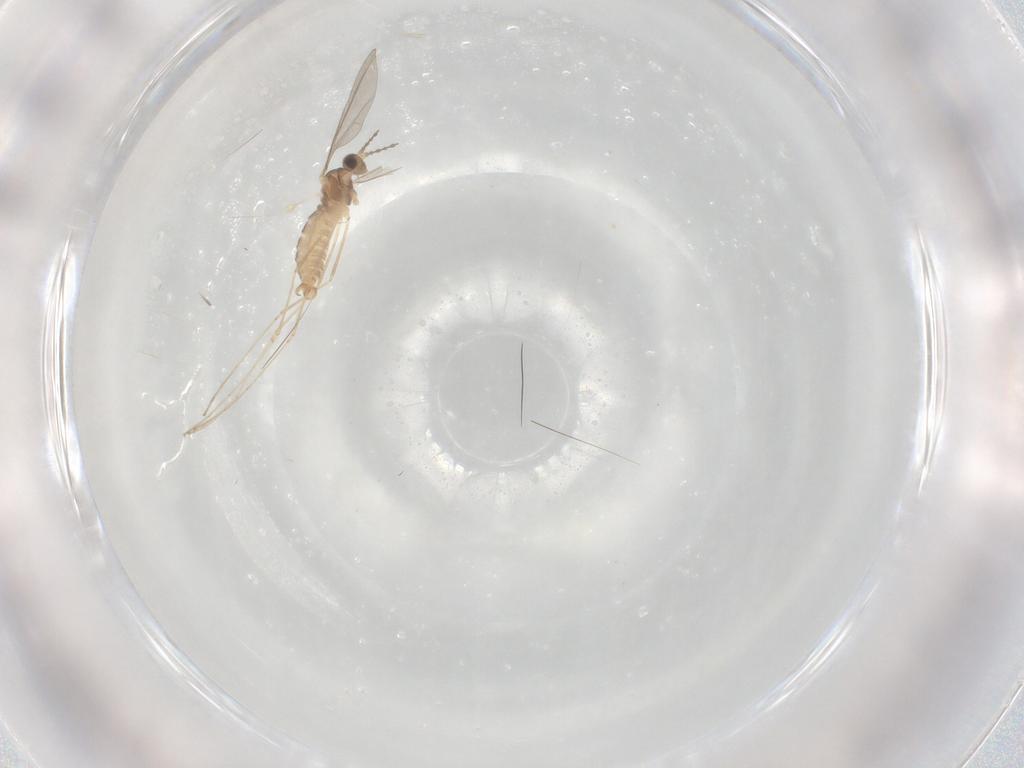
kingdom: Animalia
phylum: Arthropoda
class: Insecta
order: Diptera
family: Cecidomyiidae
